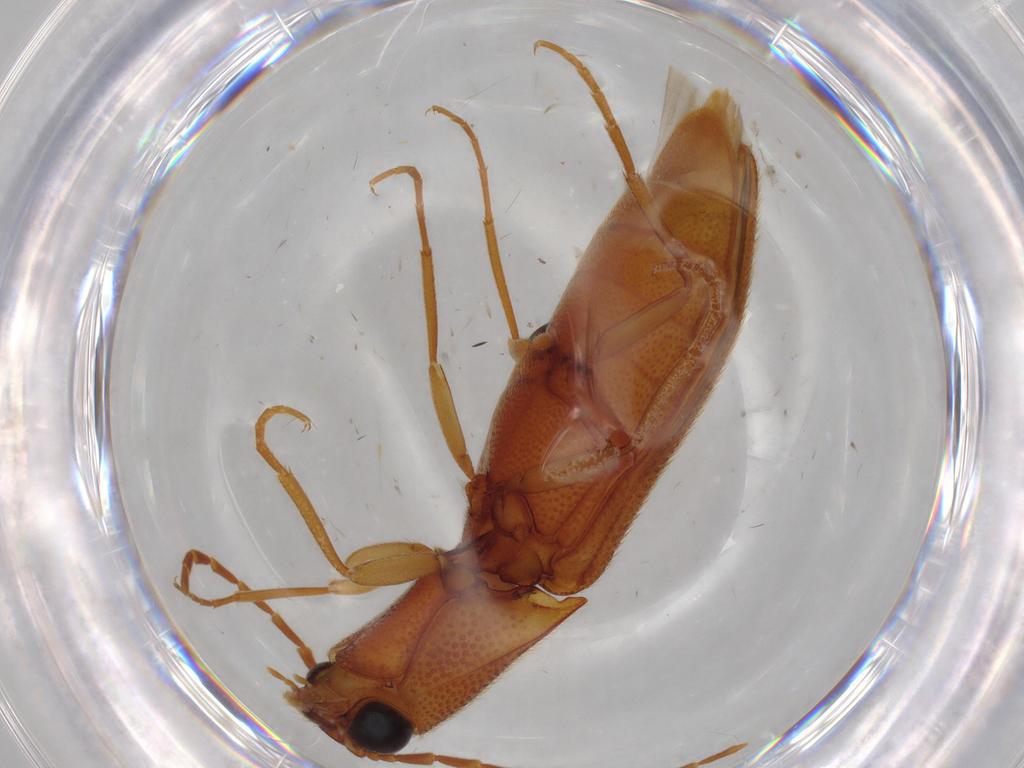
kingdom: Animalia
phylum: Arthropoda
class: Insecta
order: Coleoptera
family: Elateridae
